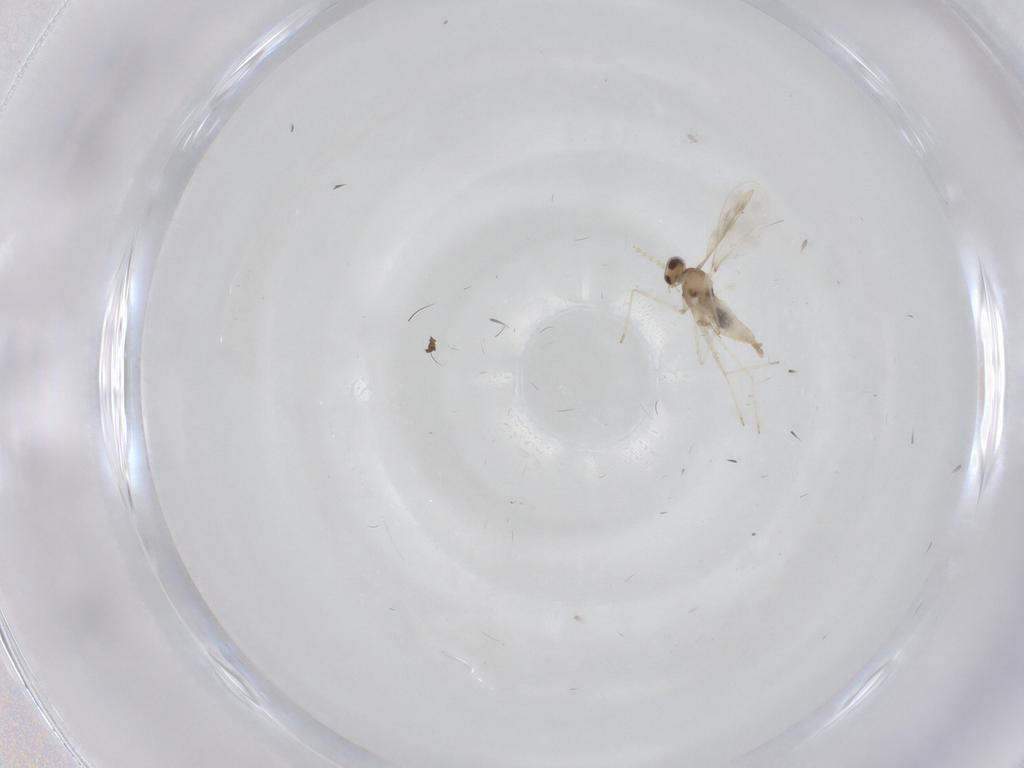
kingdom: Animalia
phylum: Arthropoda
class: Insecta
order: Diptera
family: Cecidomyiidae
